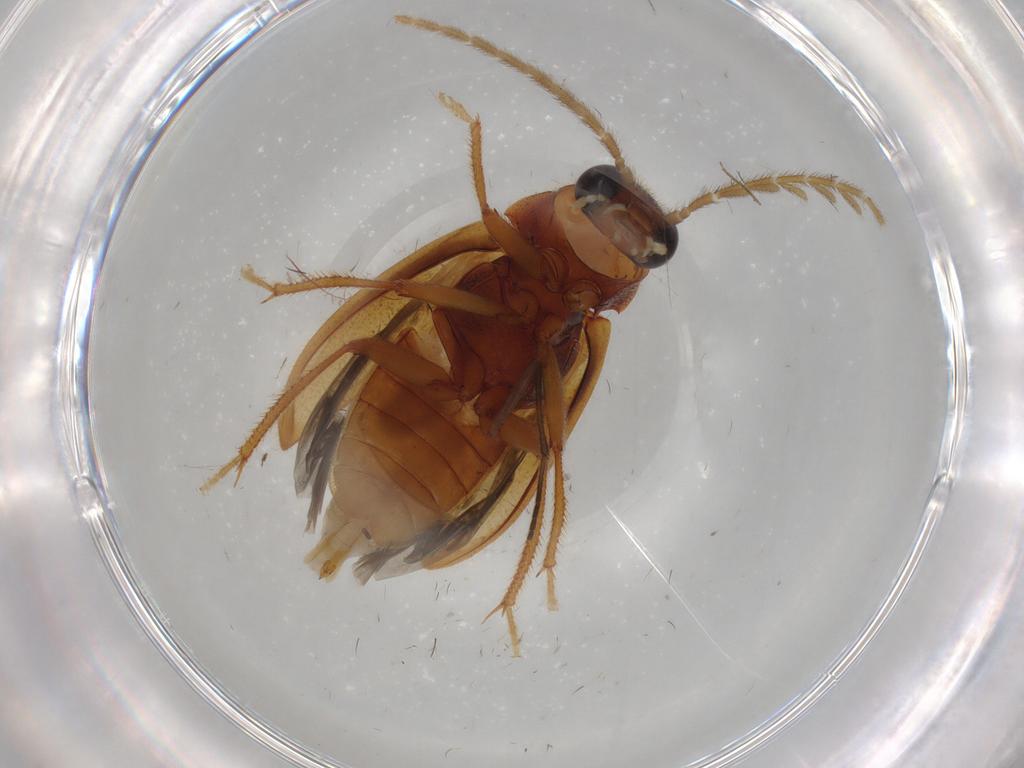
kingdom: Animalia
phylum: Arthropoda
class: Insecta
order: Coleoptera
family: Ptilodactylidae
